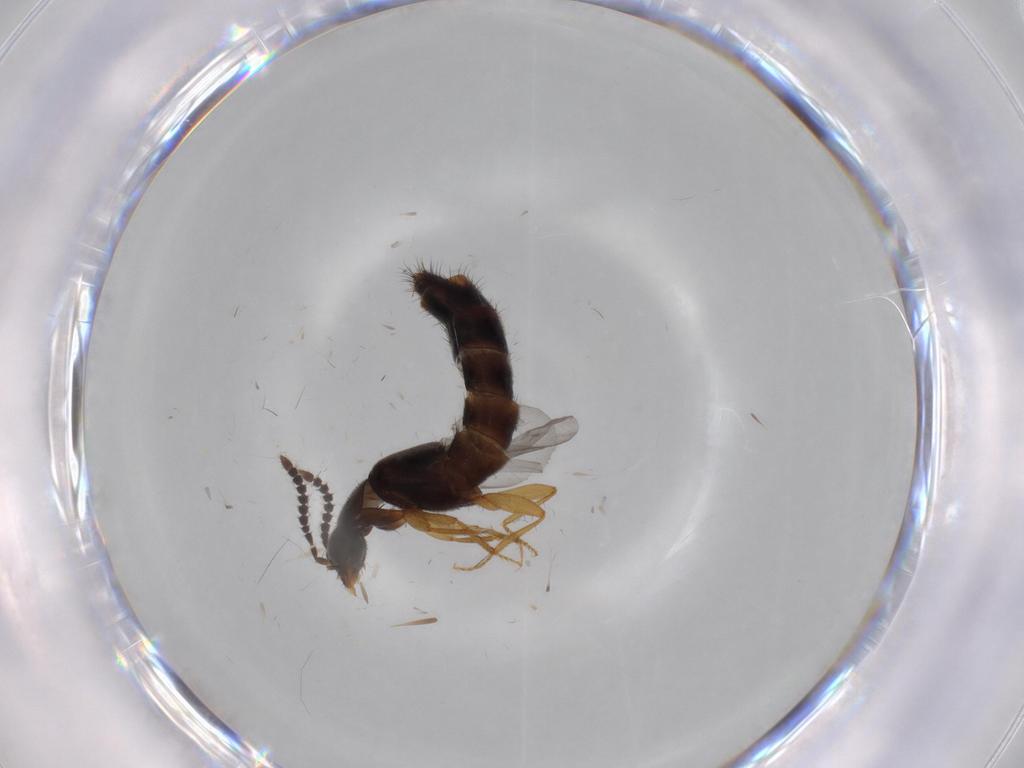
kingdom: Animalia
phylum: Arthropoda
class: Insecta
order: Coleoptera
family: Staphylinidae
